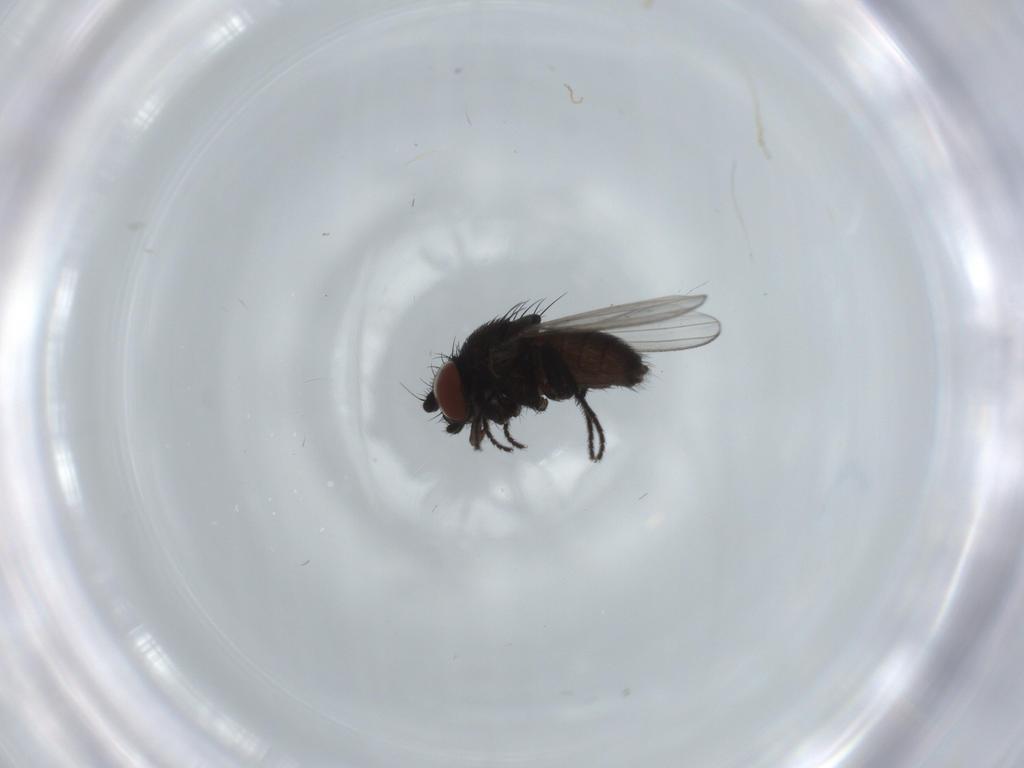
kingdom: Animalia
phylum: Arthropoda
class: Insecta
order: Diptera
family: Milichiidae
